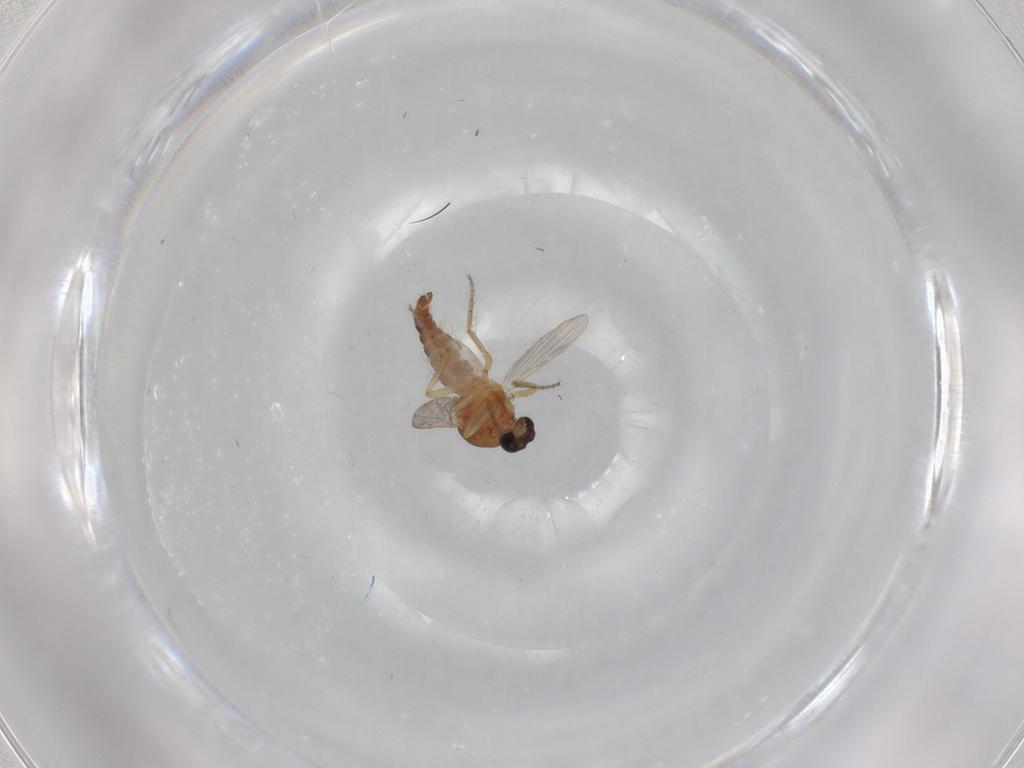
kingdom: Animalia
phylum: Arthropoda
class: Insecta
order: Diptera
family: Ceratopogonidae
